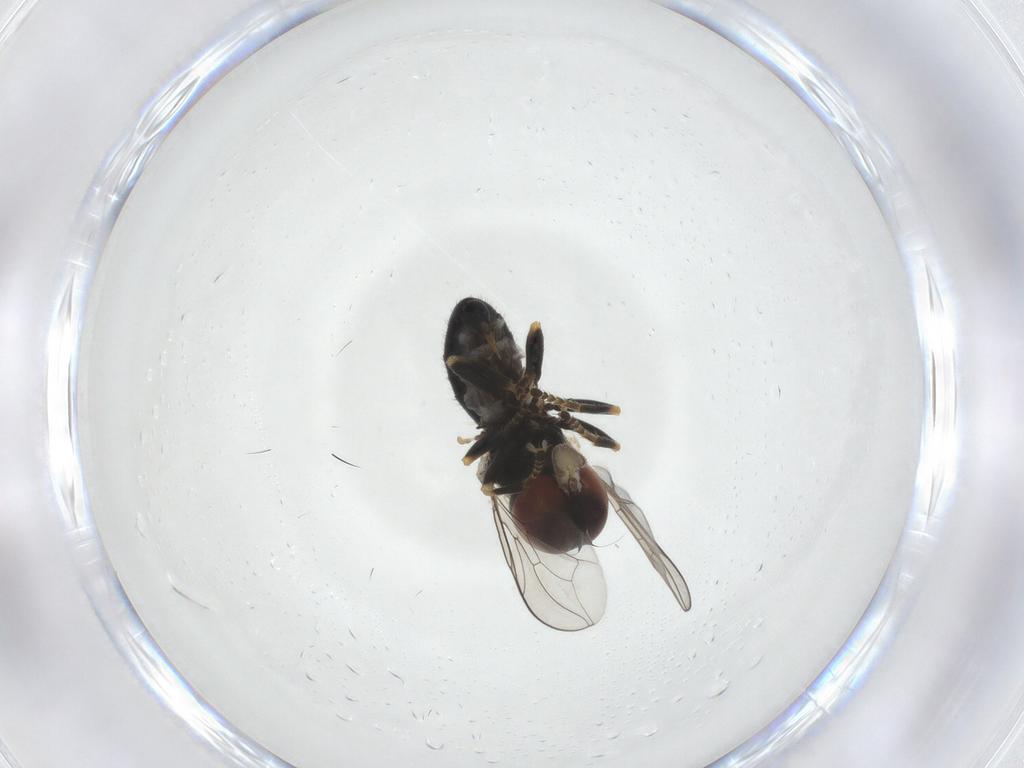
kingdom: Animalia
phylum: Arthropoda
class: Insecta
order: Diptera
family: Pipunculidae
